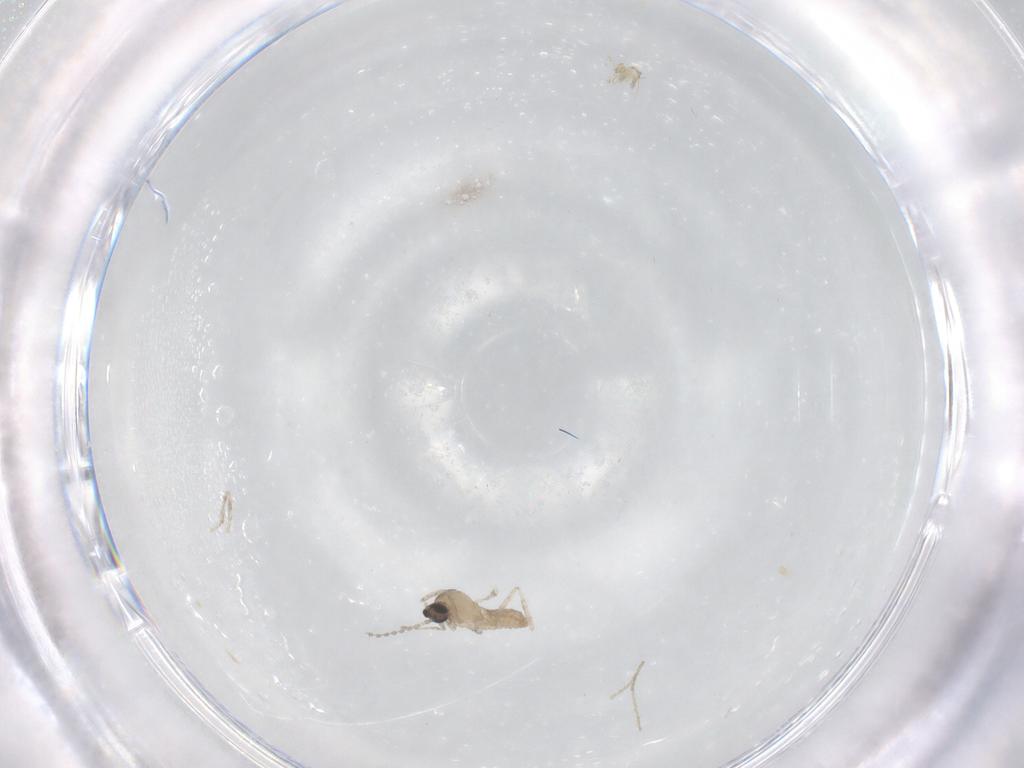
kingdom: Animalia
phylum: Arthropoda
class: Insecta
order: Diptera
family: Cecidomyiidae
